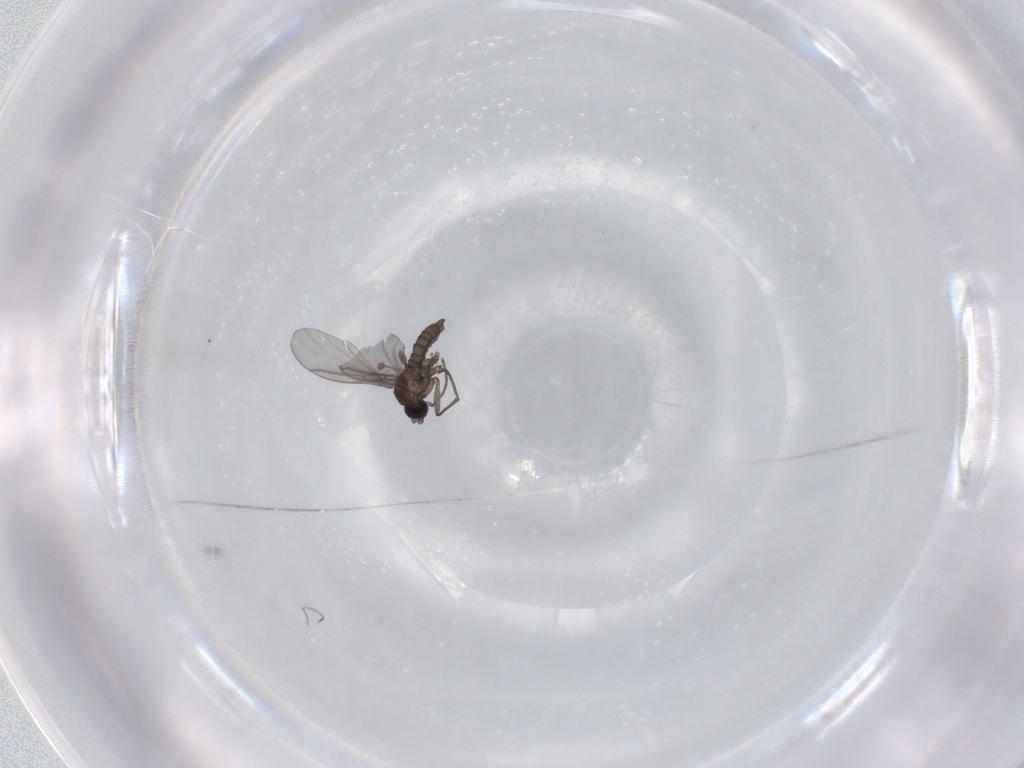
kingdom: Animalia
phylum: Arthropoda
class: Insecta
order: Diptera
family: Sciaridae
